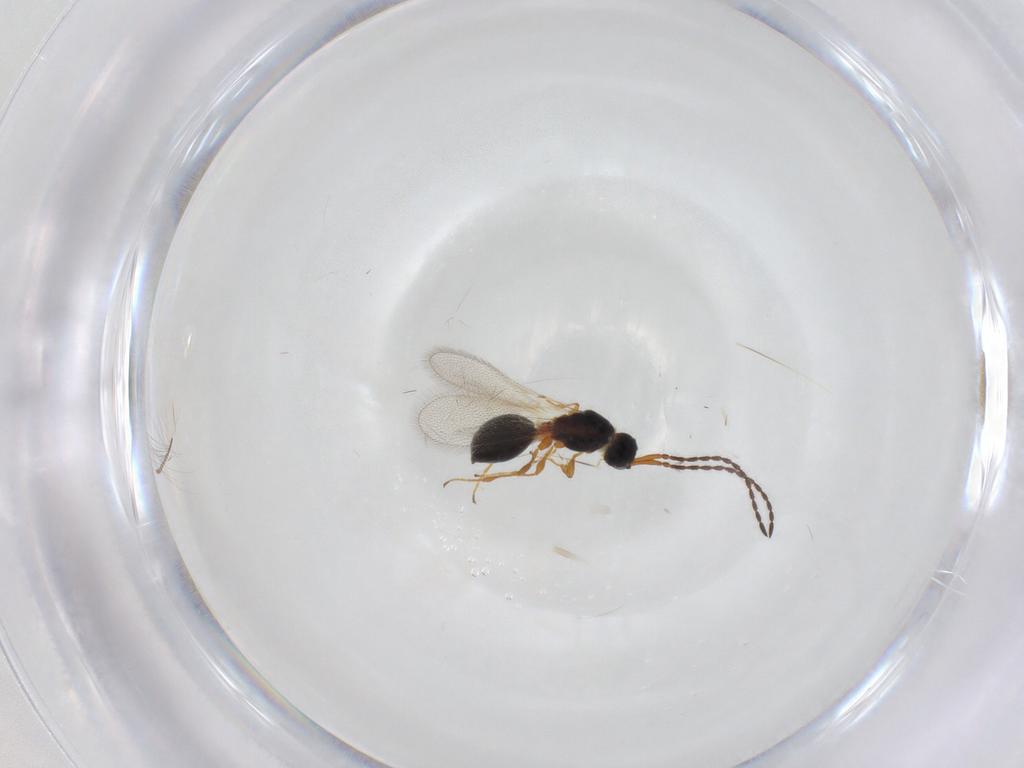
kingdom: Animalia
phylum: Arthropoda
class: Insecta
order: Hymenoptera
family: Diapriidae
